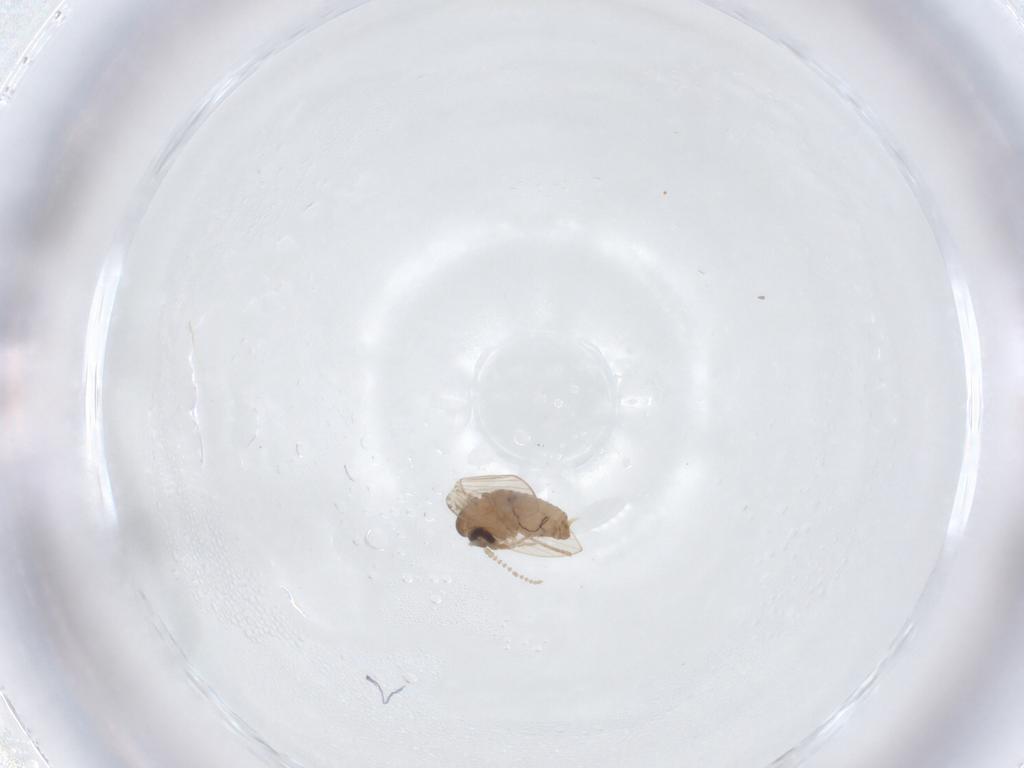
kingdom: Animalia
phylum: Arthropoda
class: Insecta
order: Diptera
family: Psychodidae
